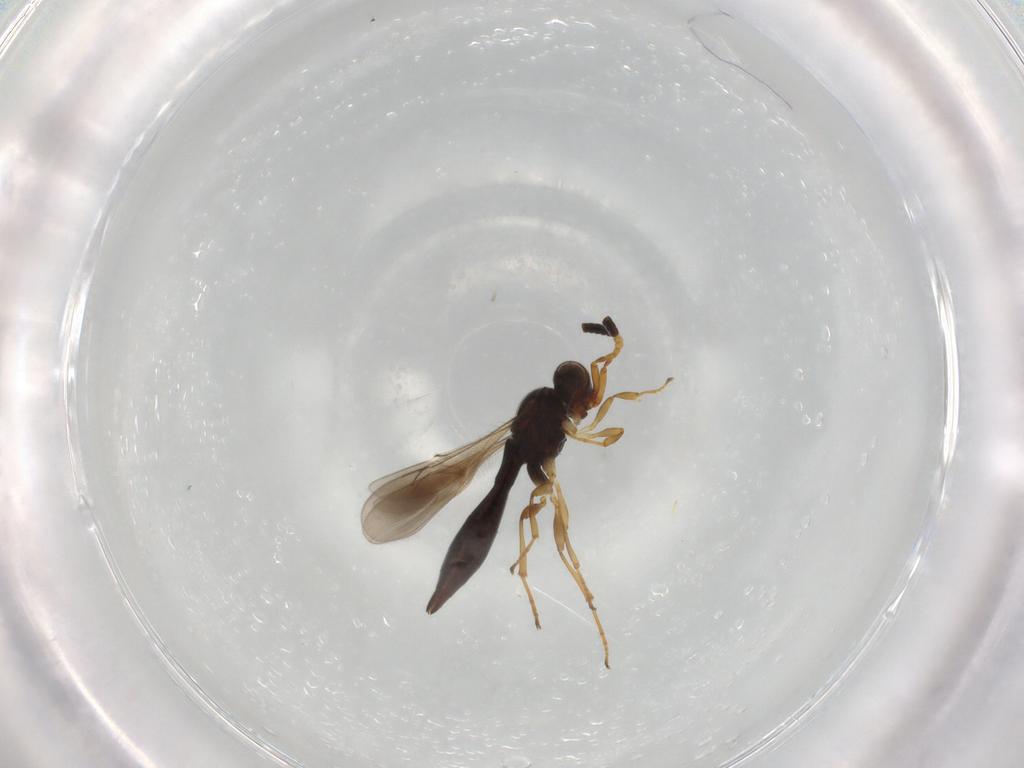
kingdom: Animalia
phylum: Arthropoda
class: Insecta
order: Hymenoptera
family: Scelionidae
